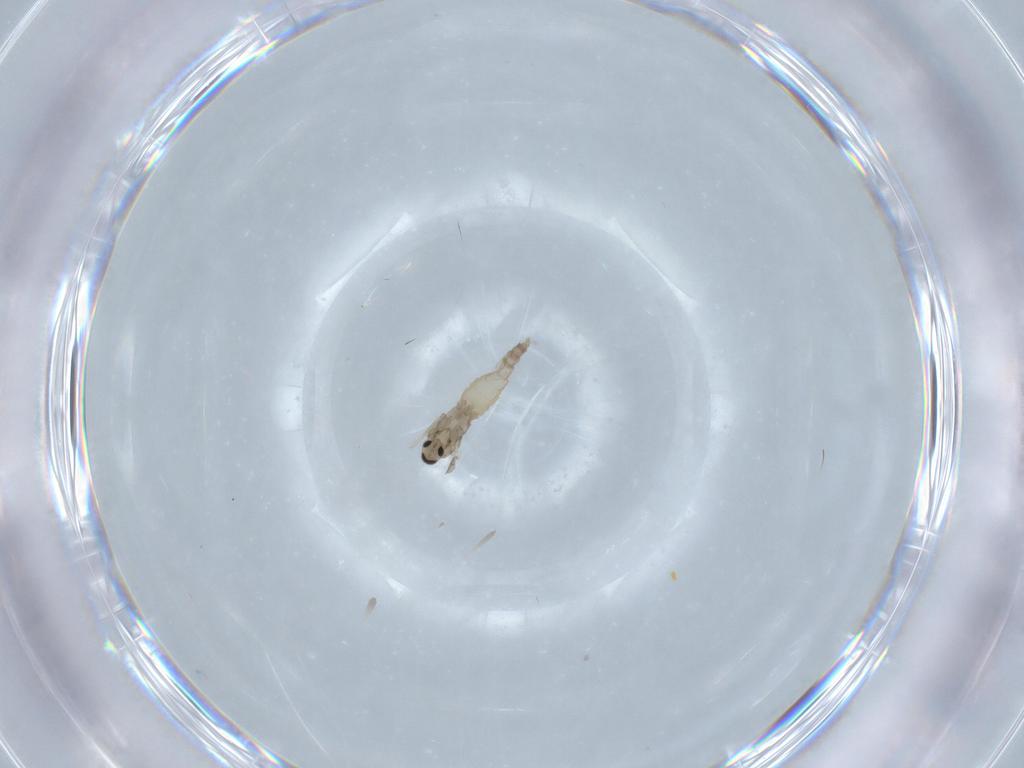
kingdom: Animalia
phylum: Arthropoda
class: Insecta
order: Diptera
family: Cecidomyiidae
